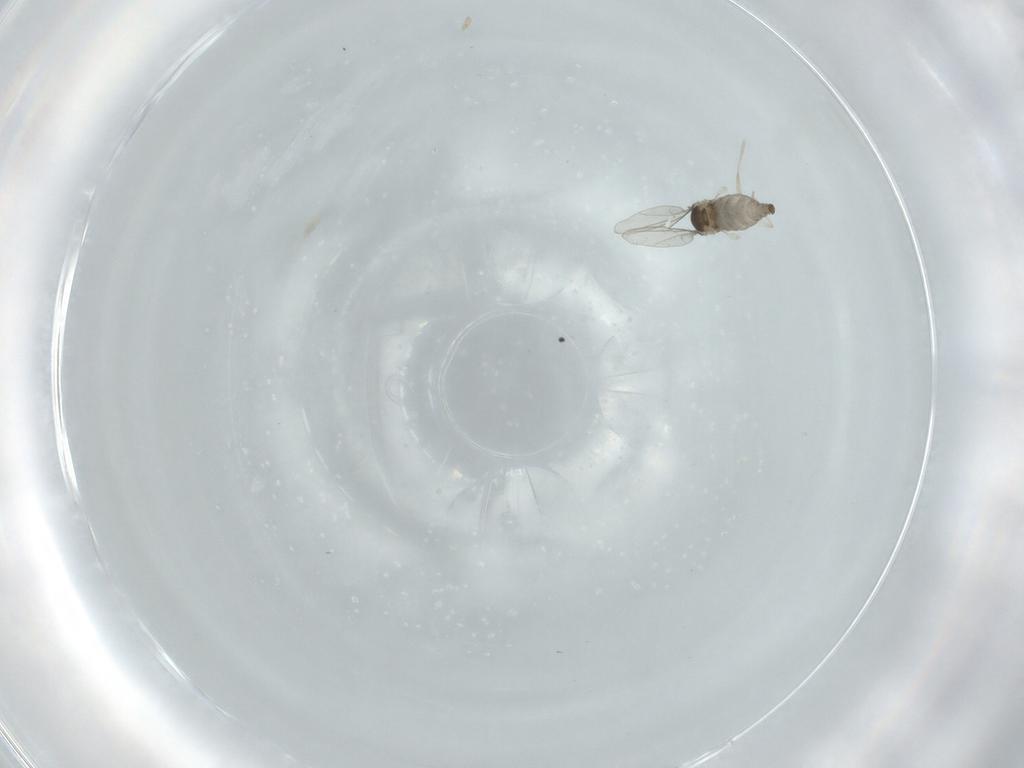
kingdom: Animalia
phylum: Arthropoda
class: Insecta
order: Diptera
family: Cecidomyiidae
